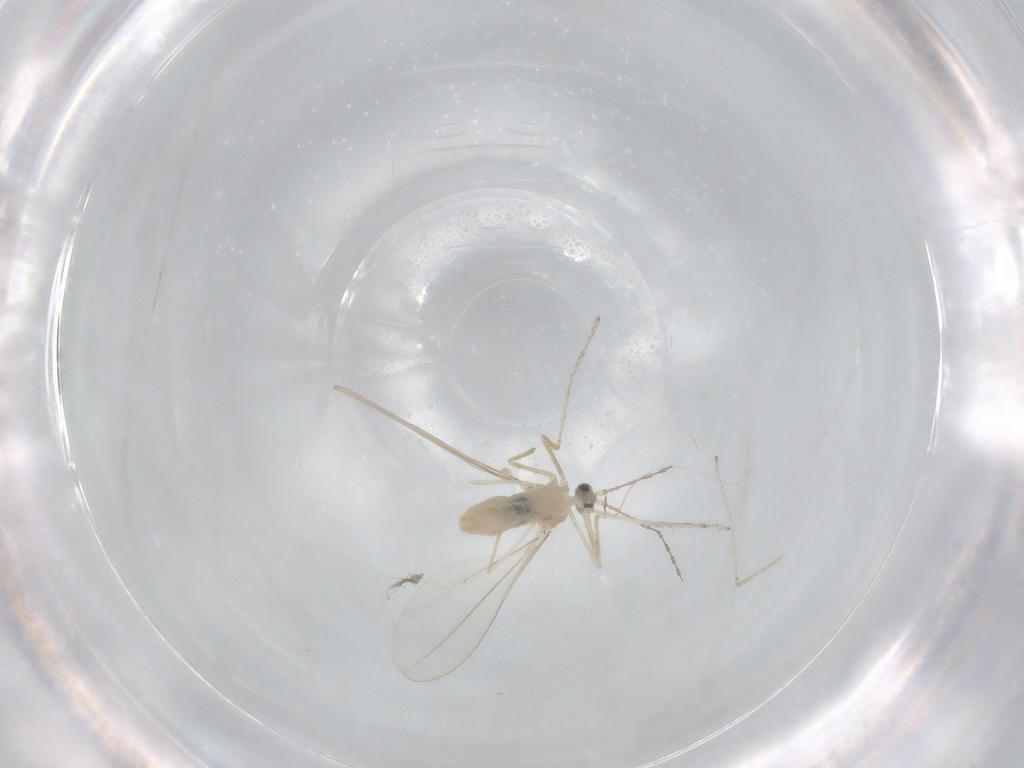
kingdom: Animalia
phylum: Arthropoda
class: Insecta
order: Diptera
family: Cecidomyiidae
